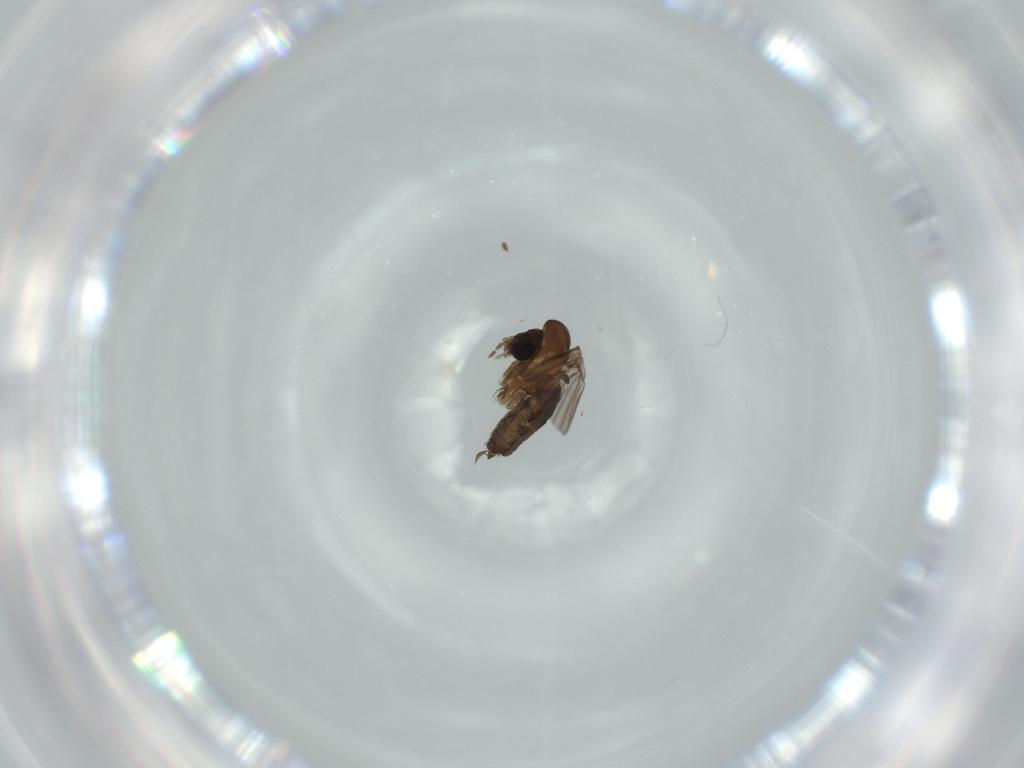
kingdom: Animalia
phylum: Arthropoda
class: Insecta
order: Diptera
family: Psychodidae
